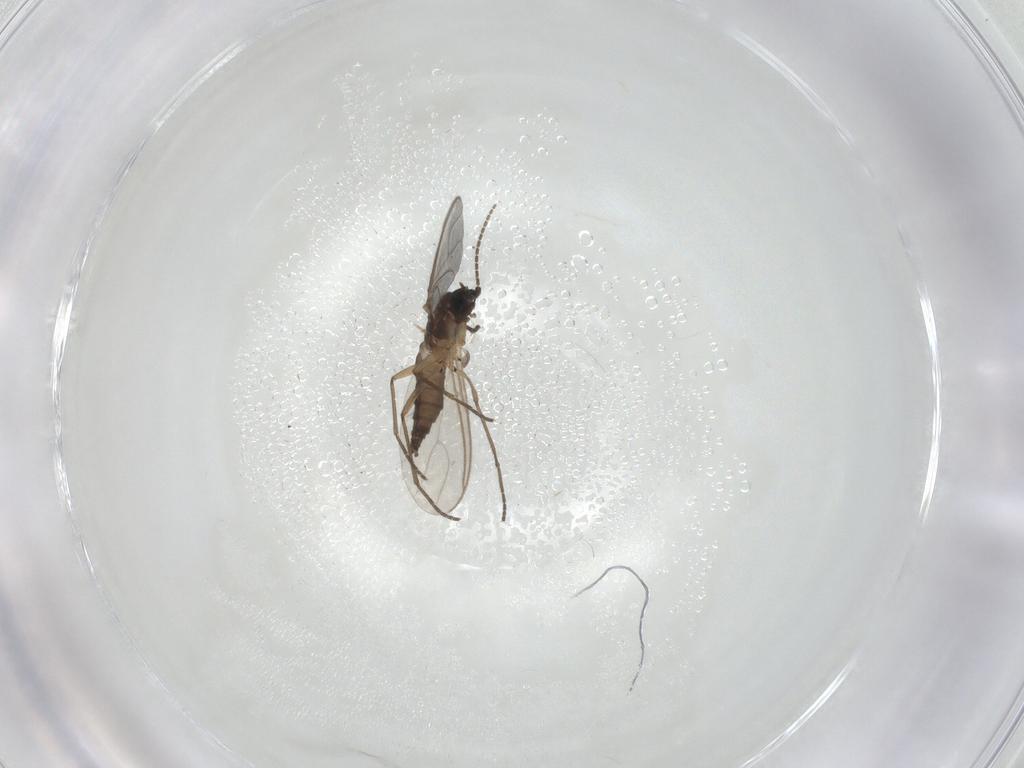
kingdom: Animalia
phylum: Arthropoda
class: Insecta
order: Diptera
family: Sciaridae
